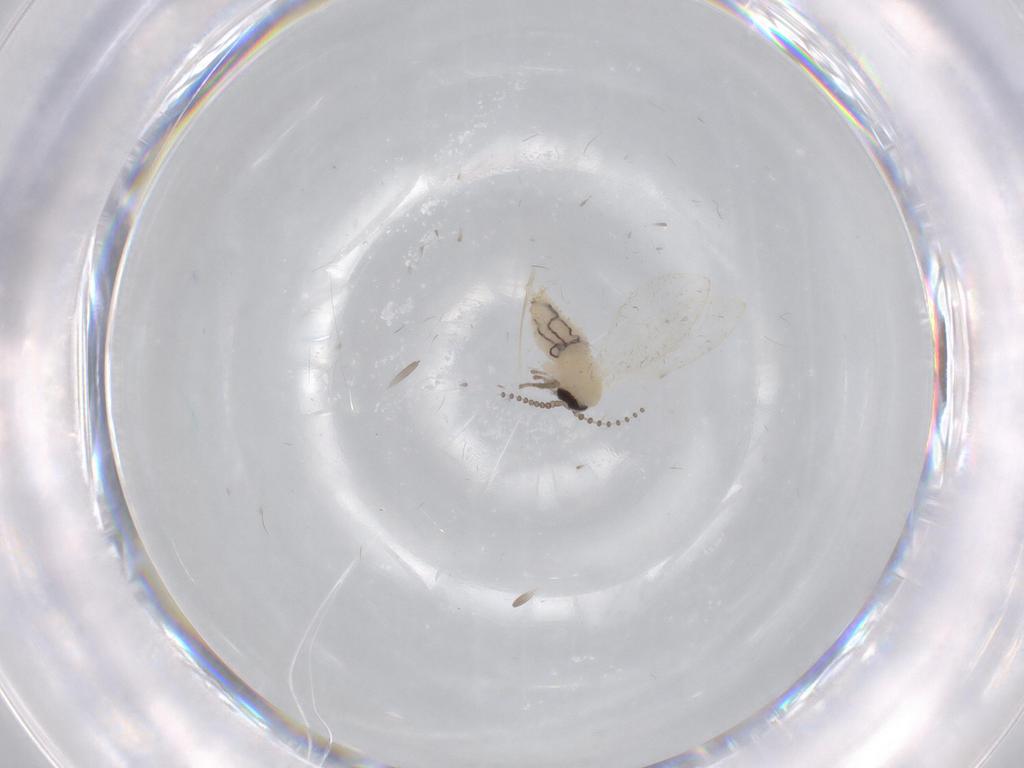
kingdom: Animalia
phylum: Arthropoda
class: Insecta
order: Diptera
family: Psychodidae
